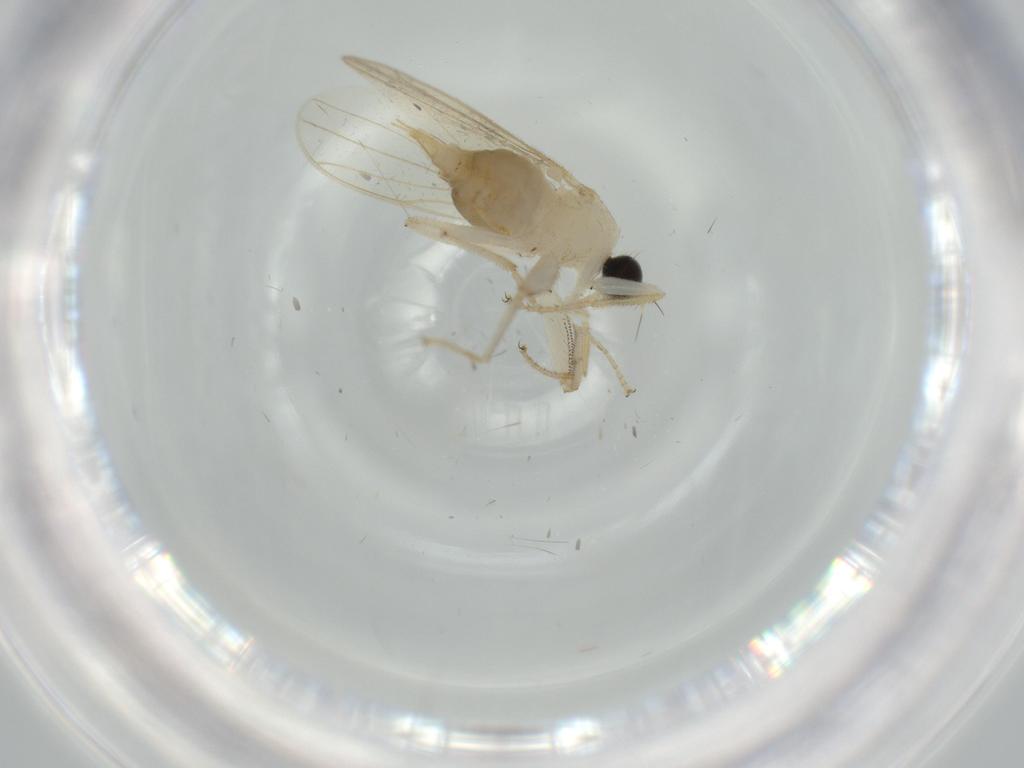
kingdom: Animalia
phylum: Arthropoda
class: Insecta
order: Diptera
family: Hybotidae
